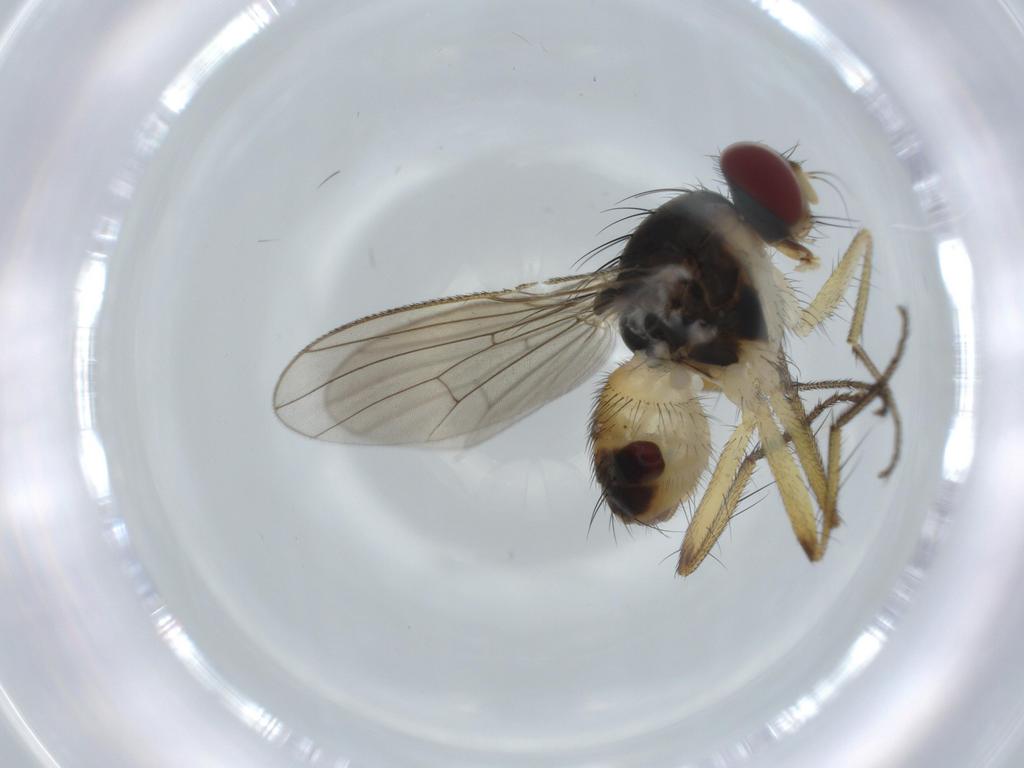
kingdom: Animalia
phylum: Arthropoda
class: Insecta
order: Diptera
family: Muscidae
